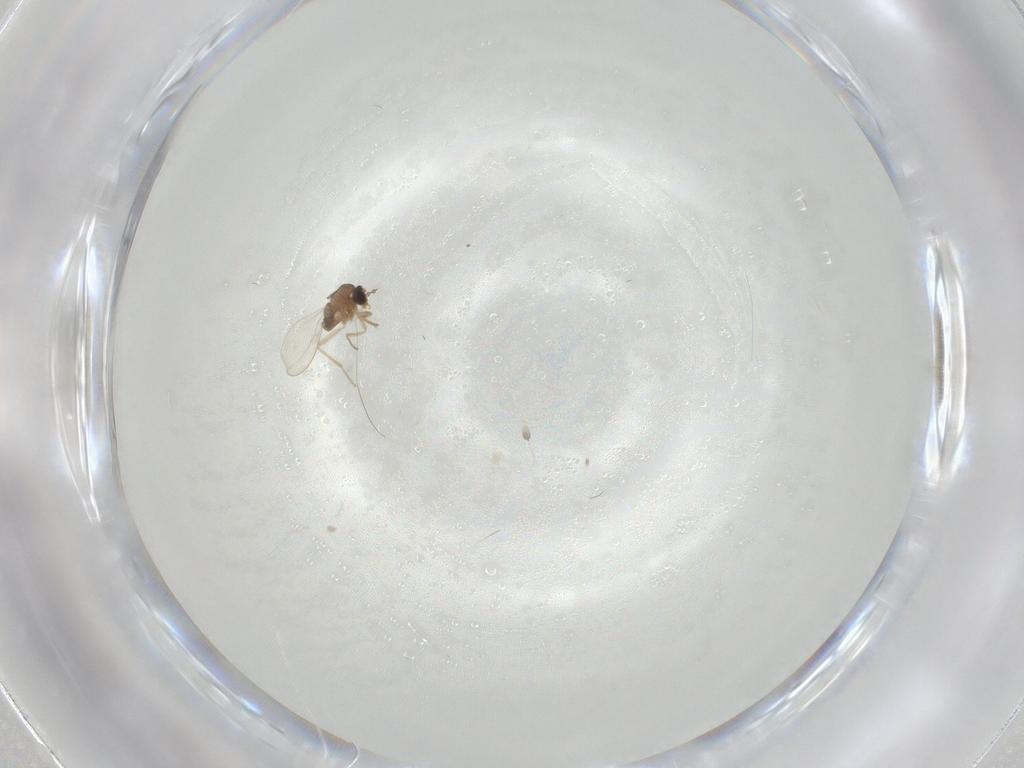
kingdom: Animalia
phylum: Arthropoda
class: Insecta
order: Diptera
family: Cecidomyiidae
